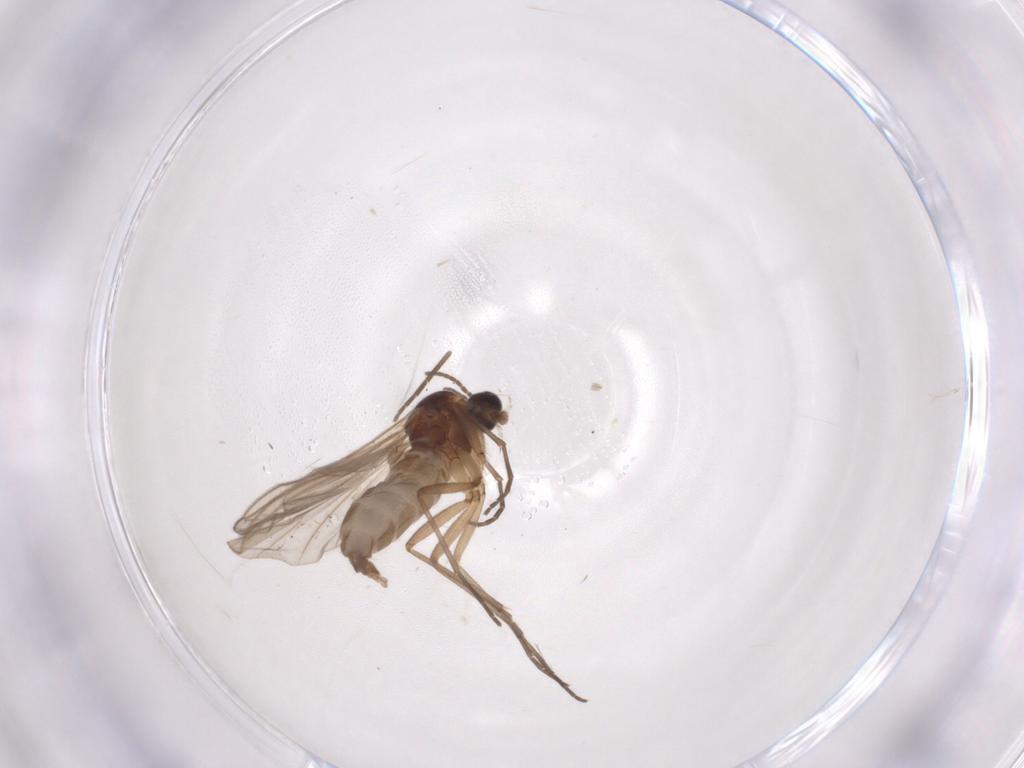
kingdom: Animalia
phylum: Arthropoda
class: Insecta
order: Diptera
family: Sciaridae
